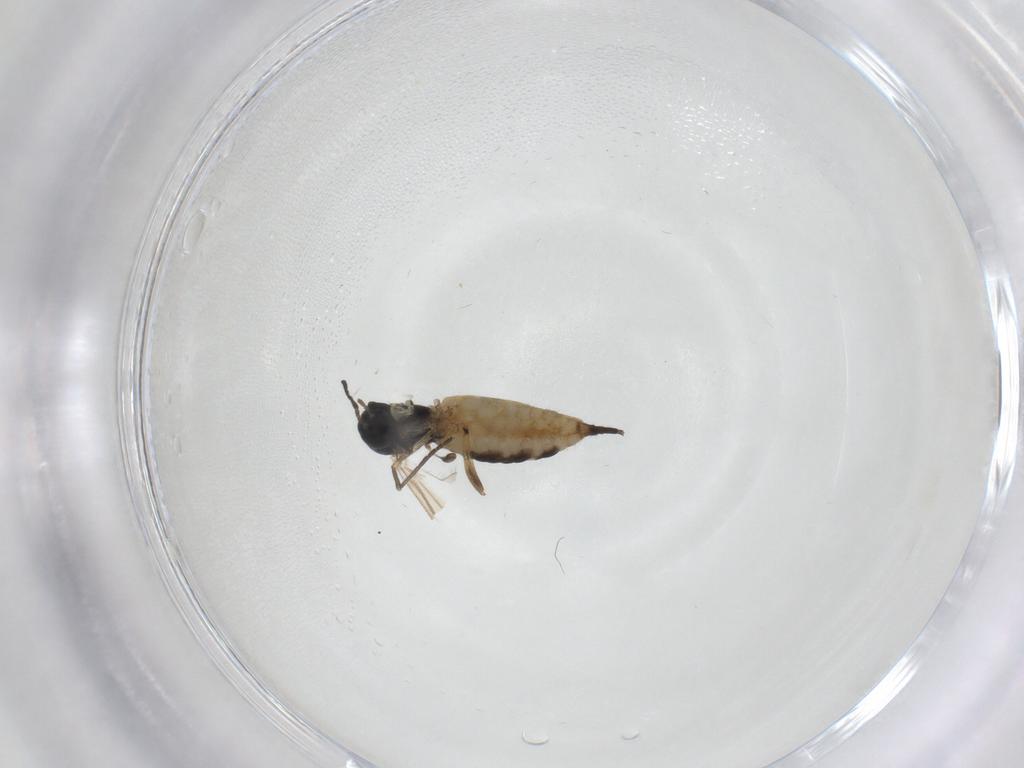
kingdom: Animalia
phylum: Arthropoda
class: Insecta
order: Diptera
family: Sciaridae
